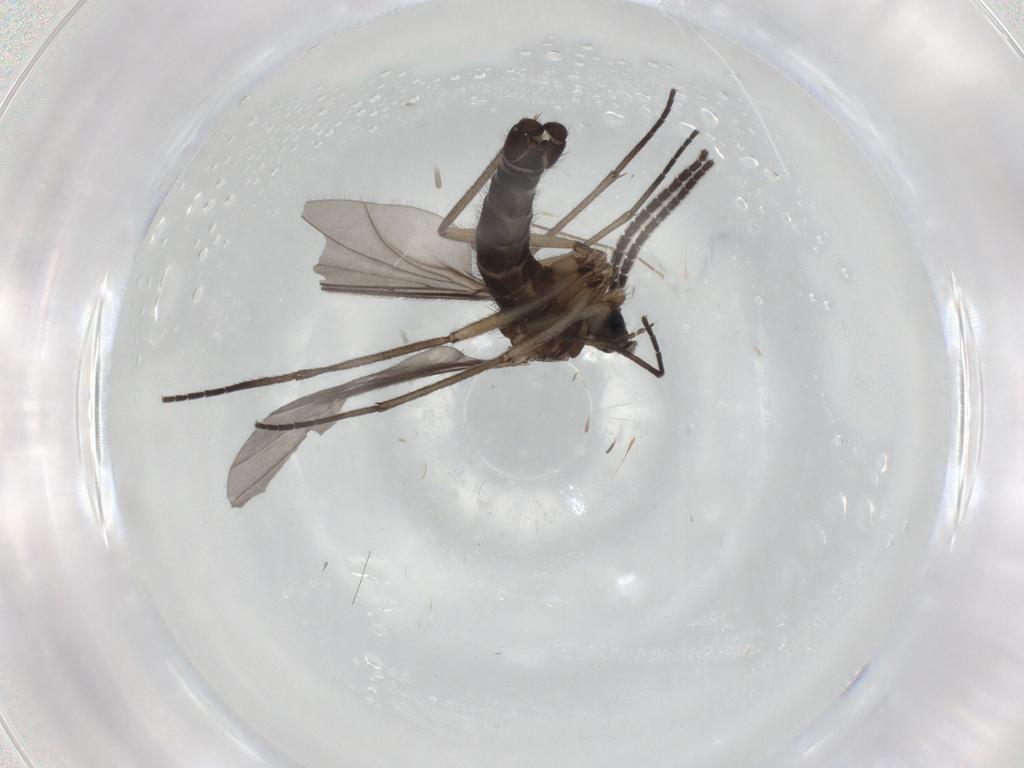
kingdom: Animalia
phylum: Arthropoda
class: Insecta
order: Diptera
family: Sciaridae
